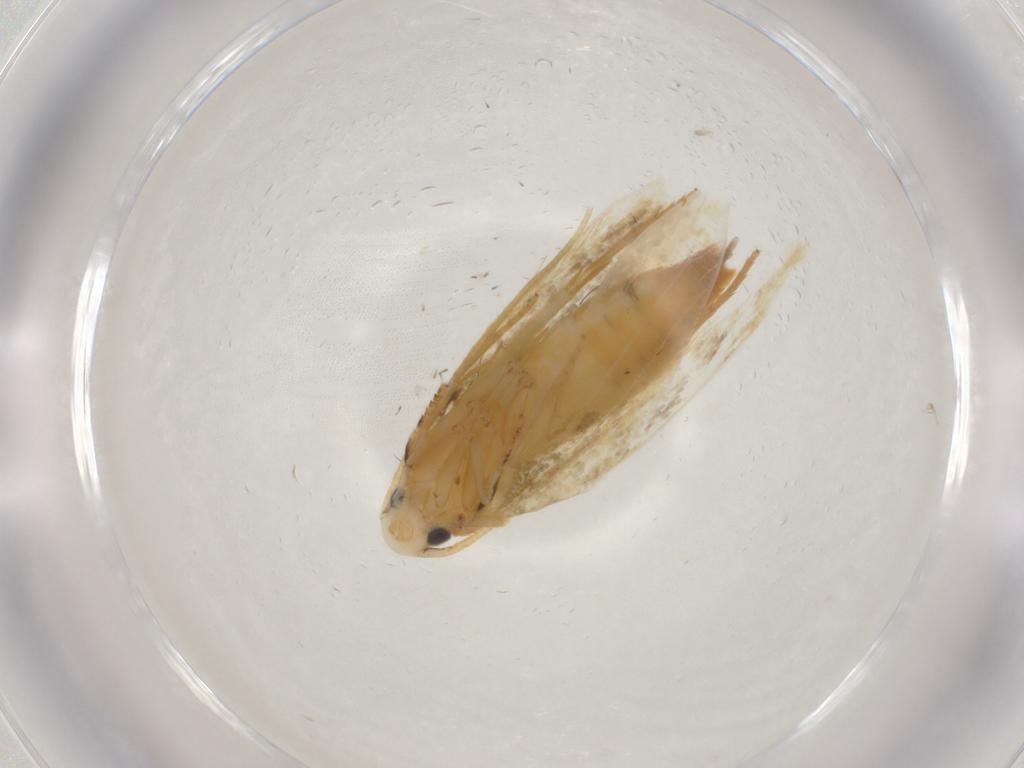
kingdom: Animalia
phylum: Arthropoda
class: Insecta
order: Lepidoptera
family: Tineidae
